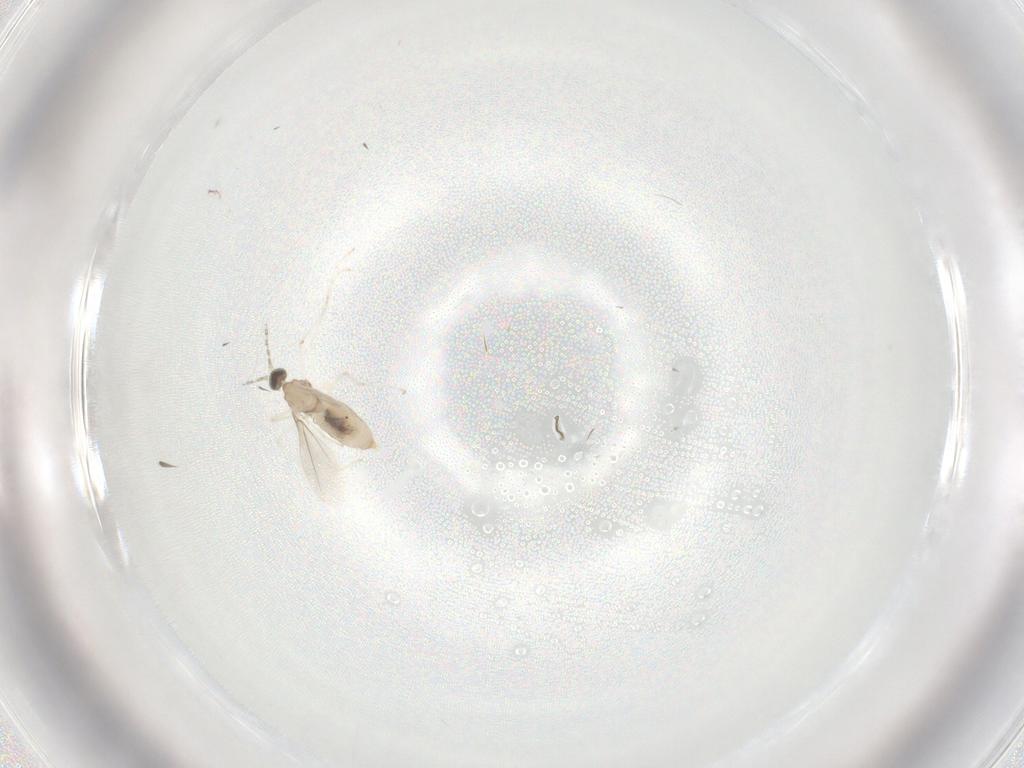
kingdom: Animalia
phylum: Arthropoda
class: Insecta
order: Diptera
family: Cecidomyiidae
